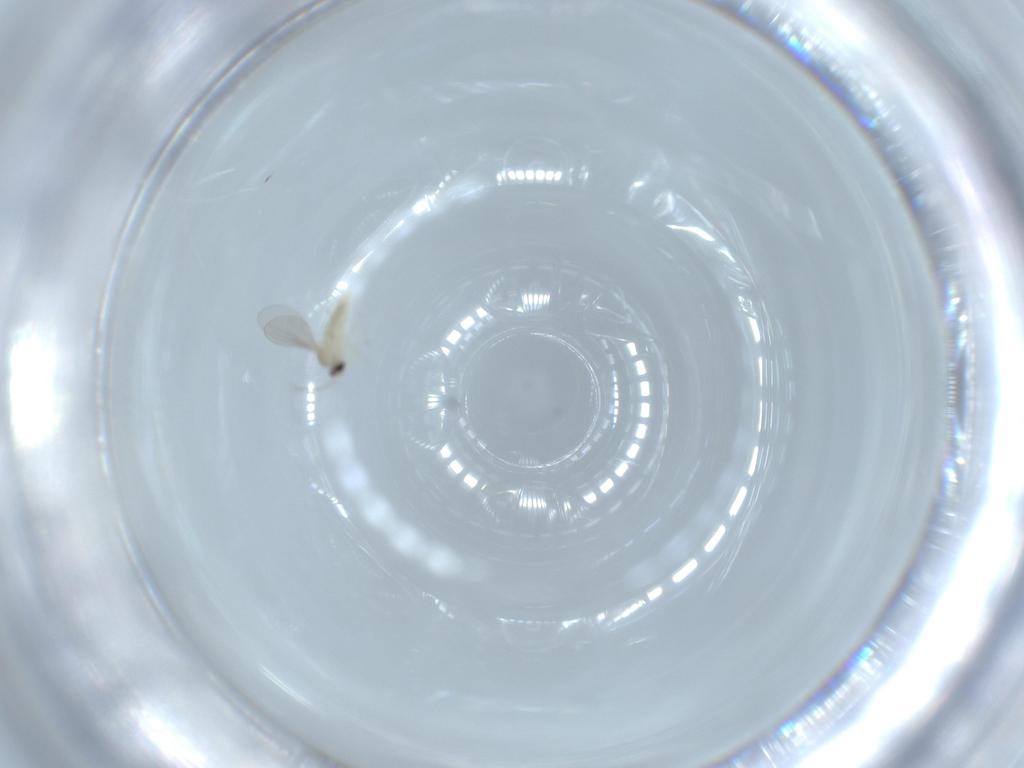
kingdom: Animalia
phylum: Arthropoda
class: Insecta
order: Diptera
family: Cecidomyiidae
